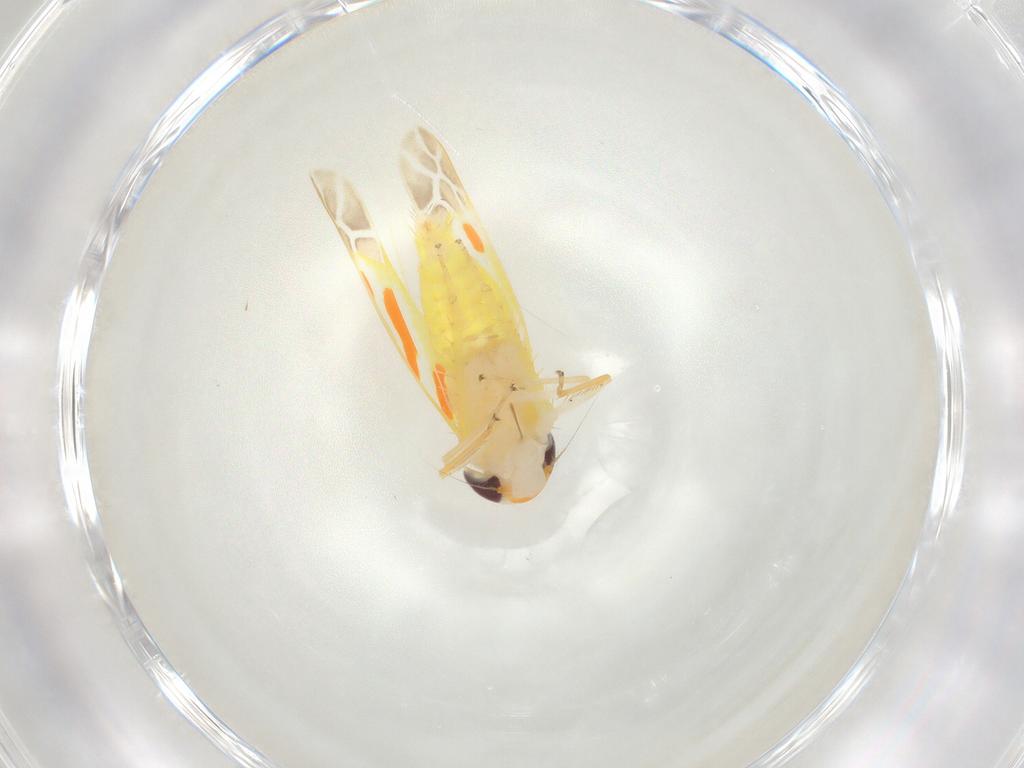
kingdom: Animalia
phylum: Arthropoda
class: Insecta
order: Hemiptera
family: Cicadellidae
